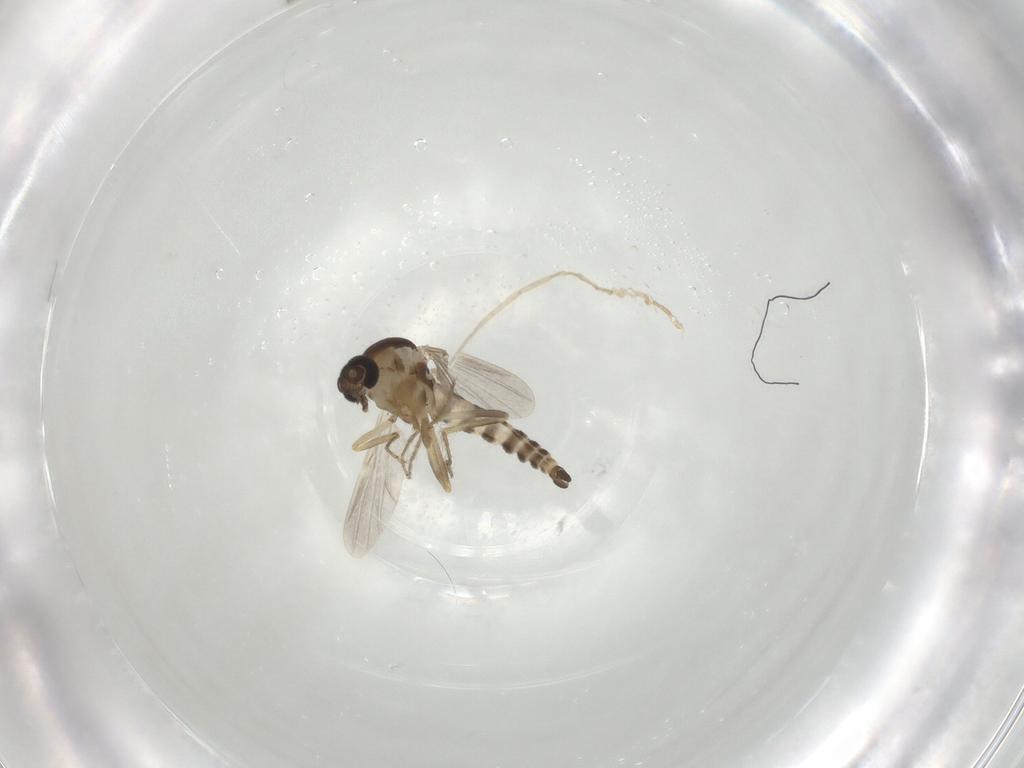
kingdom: Animalia
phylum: Arthropoda
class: Insecta
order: Diptera
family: Ceratopogonidae
